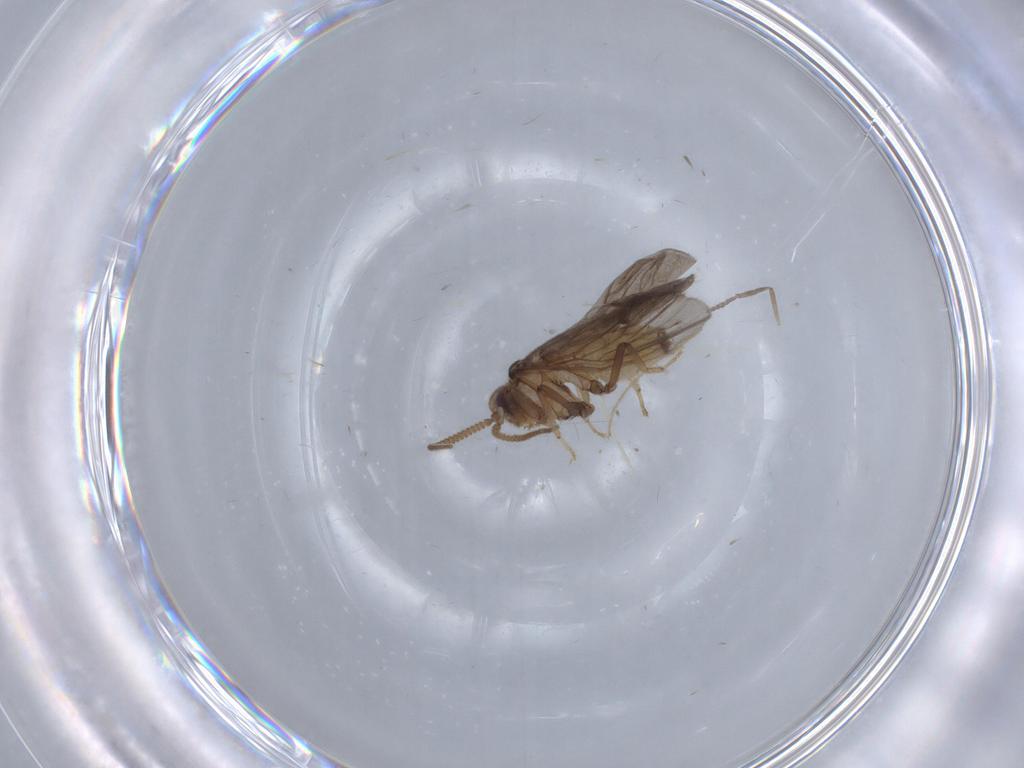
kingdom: Animalia
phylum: Arthropoda
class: Insecta
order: Neuroptera
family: Coniopterygidae
